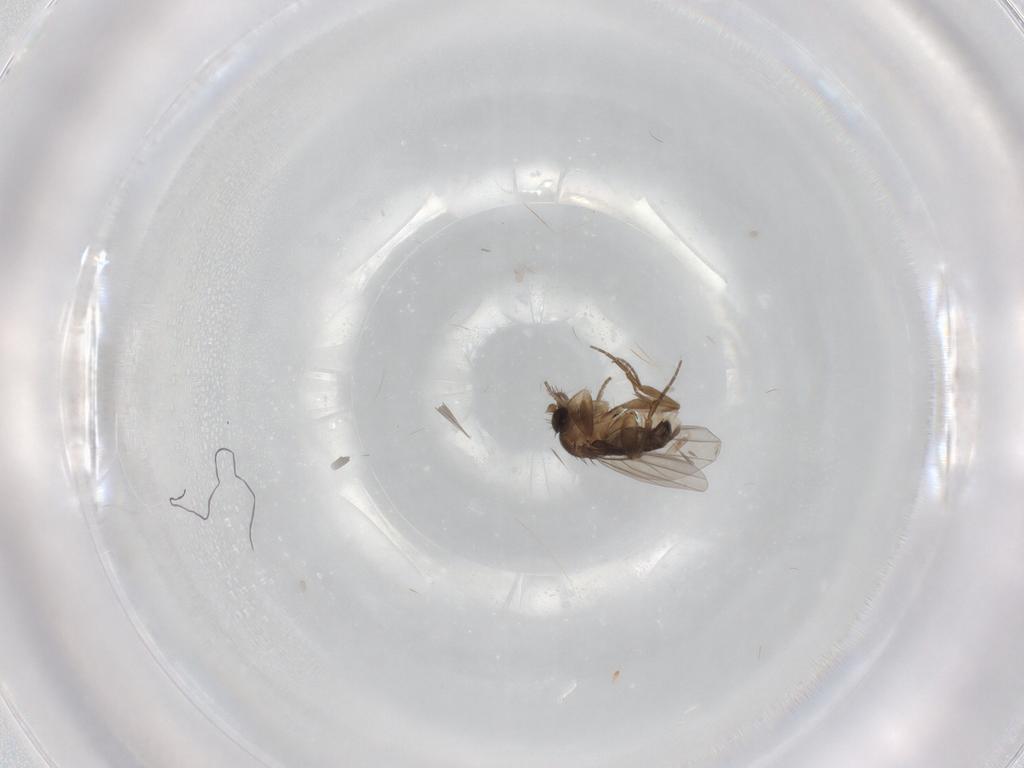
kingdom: Animalia
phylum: Arthropoda
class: Insecta
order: Diptera
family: Phoridae
